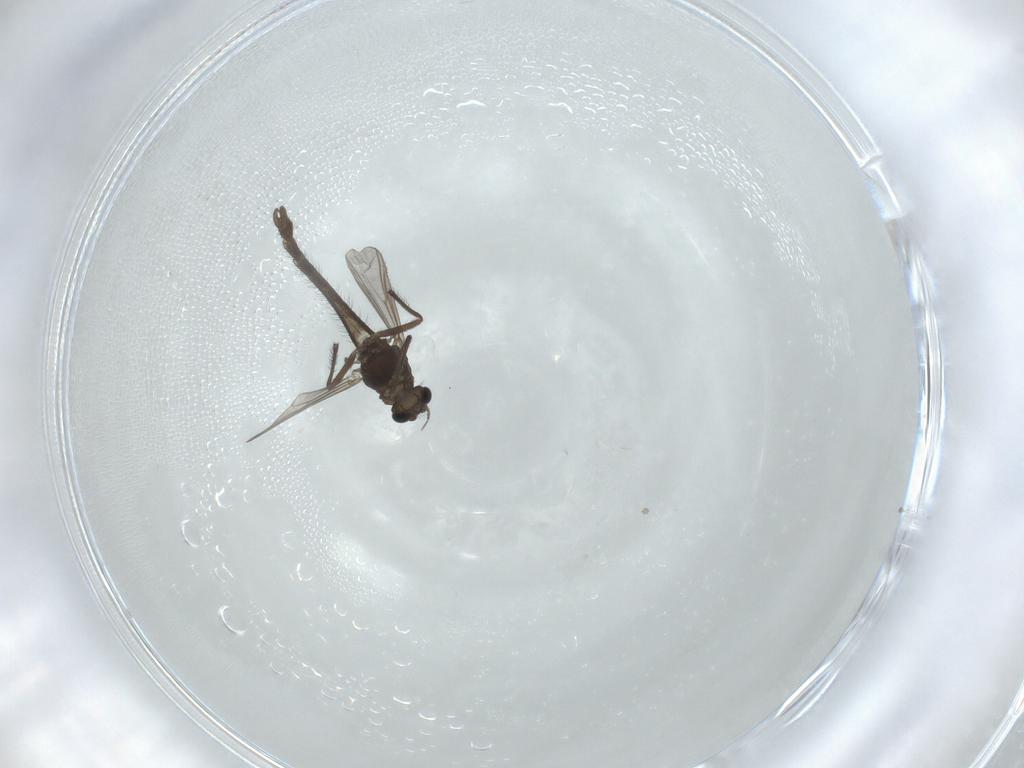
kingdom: Animalia
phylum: Arthropoda
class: Insecta
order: Diptera
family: Chironomidae
